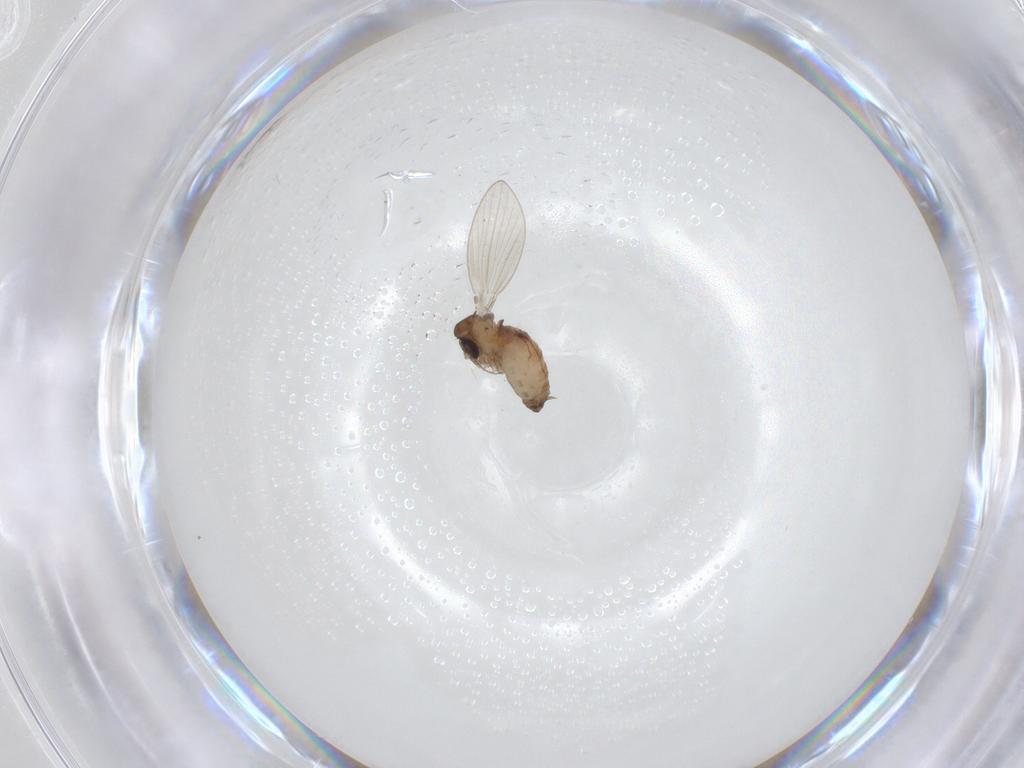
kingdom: Animalia
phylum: Arthropoda
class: Insecta
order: Diptera
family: Psychodidae
